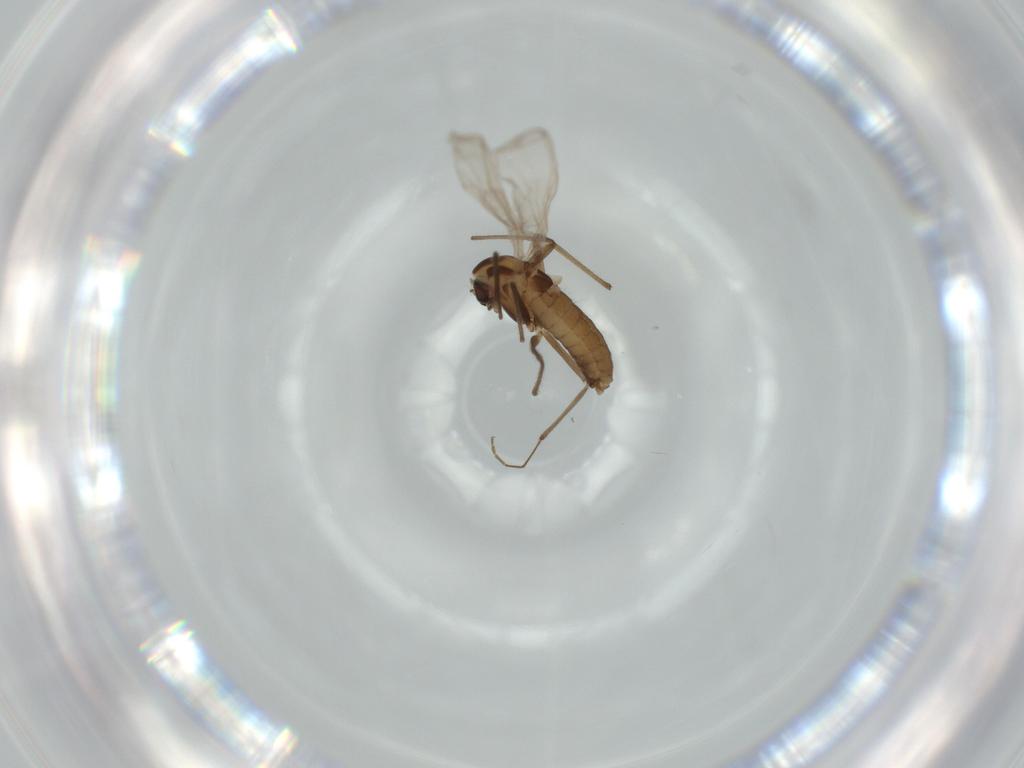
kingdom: Animalia
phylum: Arthropoda
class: Insecta
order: Diptera
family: Chironomidae
